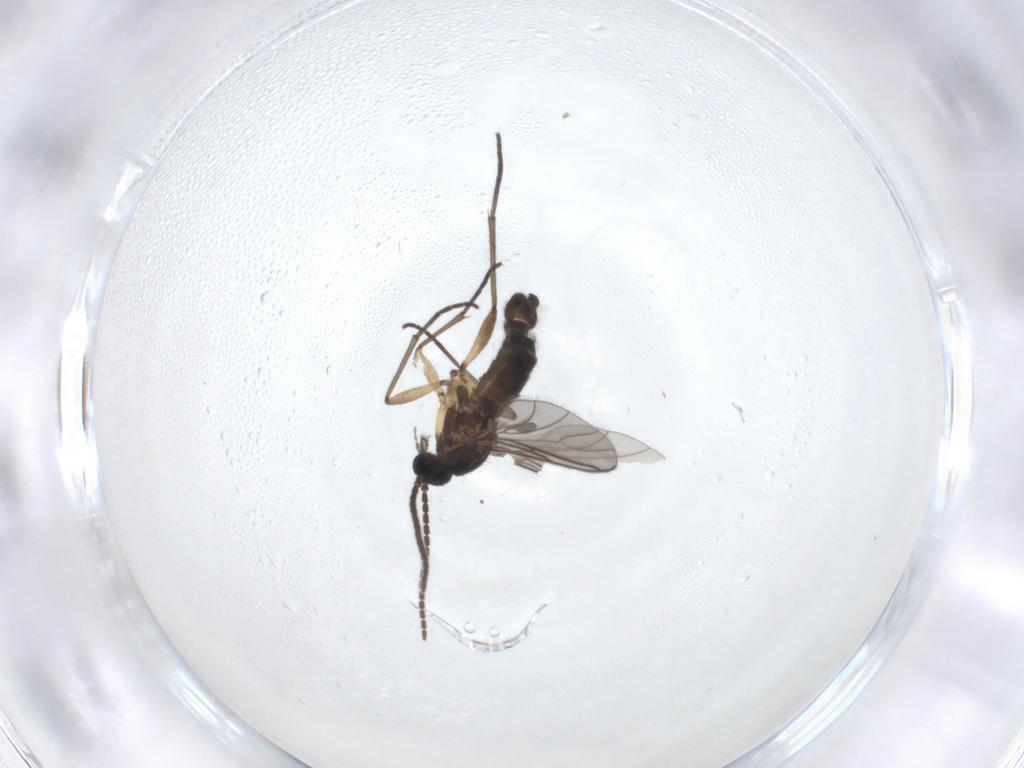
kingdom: Animalia
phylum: Arthropoda
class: Insecta
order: Diptera
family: Sciaridae
